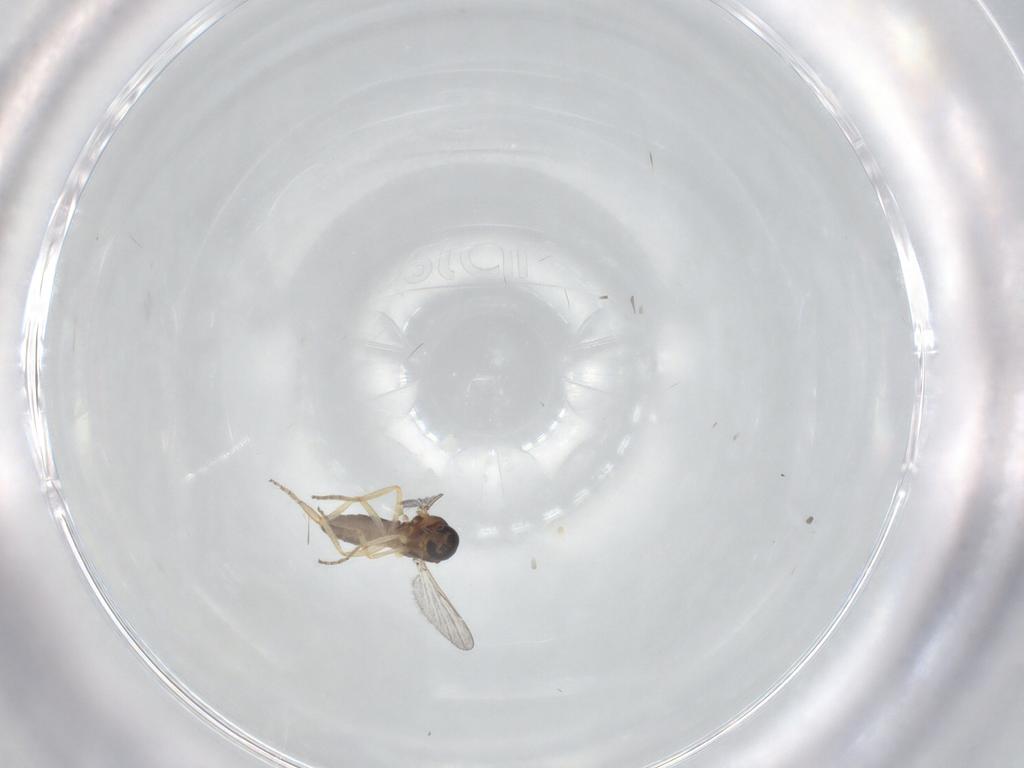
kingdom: Animalia
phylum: Arthropoda
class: Insecta
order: Diptera
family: Ceratopogonidae
